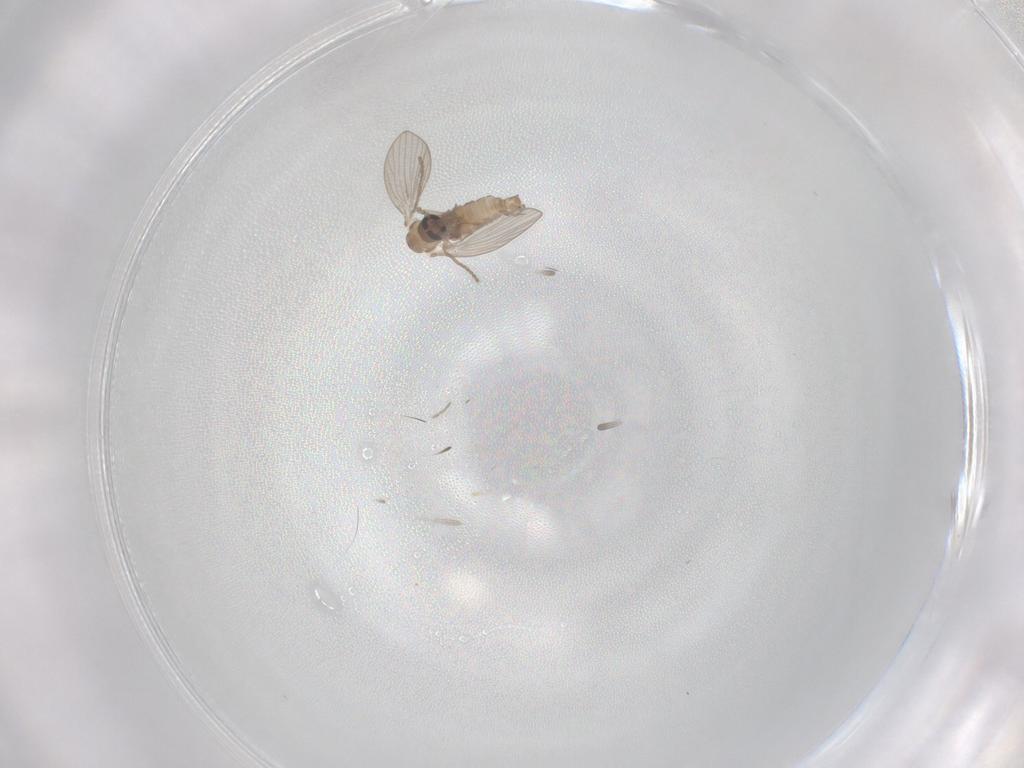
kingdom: Animalia
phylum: Arthropoda
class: Insecta
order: Diptera
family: Psychodidae
